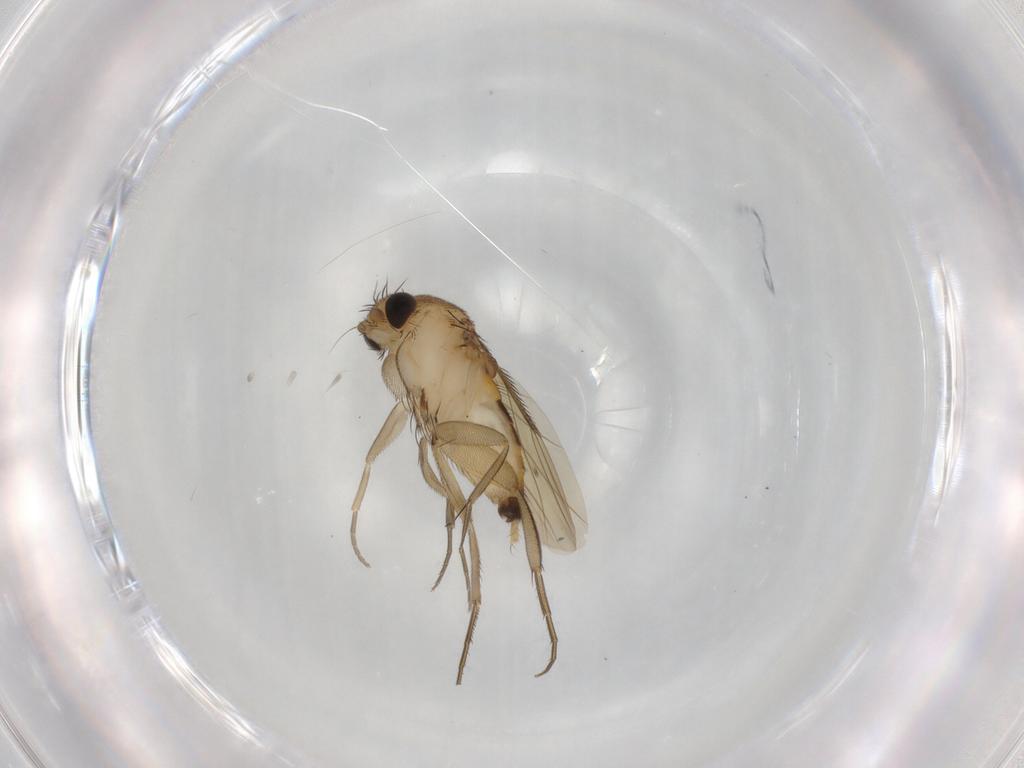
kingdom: Animalia
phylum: Arthropoda
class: Insecta
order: Diptera
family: Phoridae
